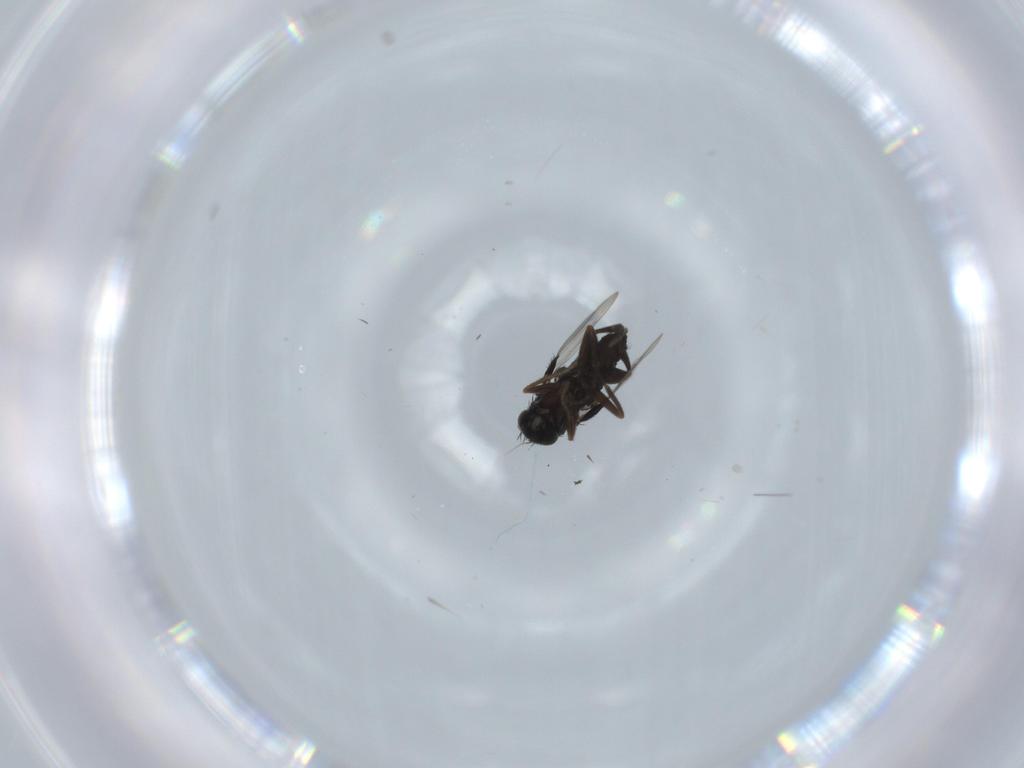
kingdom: Animalia
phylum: Arthropoda
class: Insecta
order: Diptera
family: Phoridae
